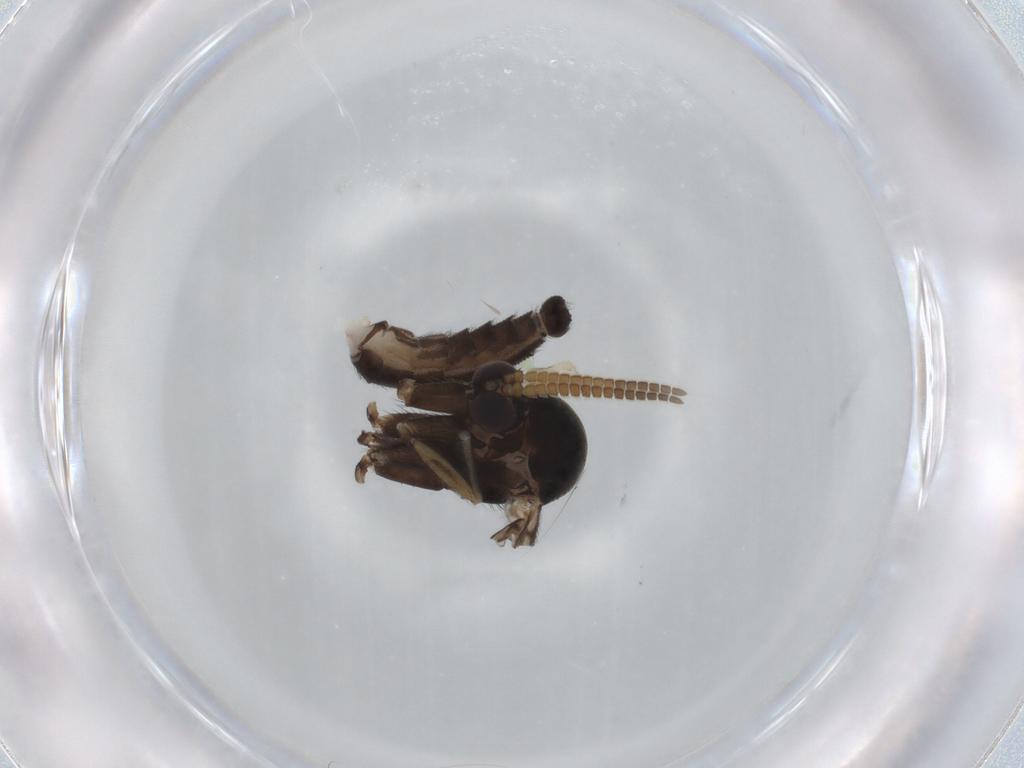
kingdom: Animalia
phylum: Arthropoda
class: Insecta
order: Diptera
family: Mycetophilidae
